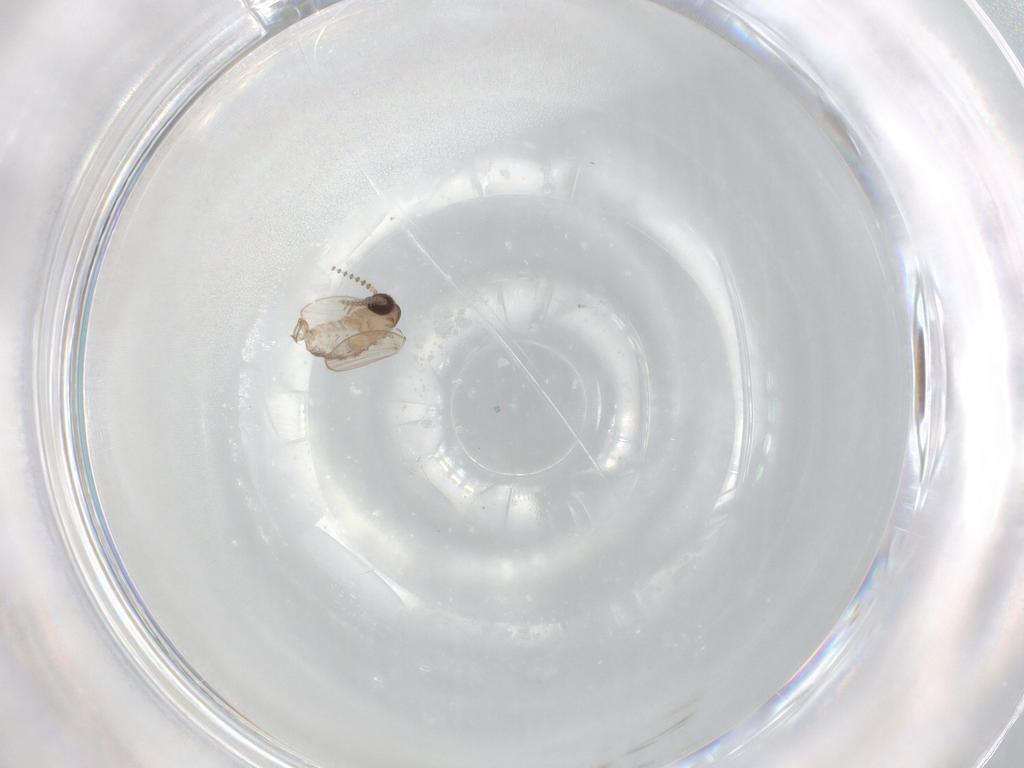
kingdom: Animalia
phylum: Arthropoda
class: Insecta
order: Diptera
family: Psychodidae
